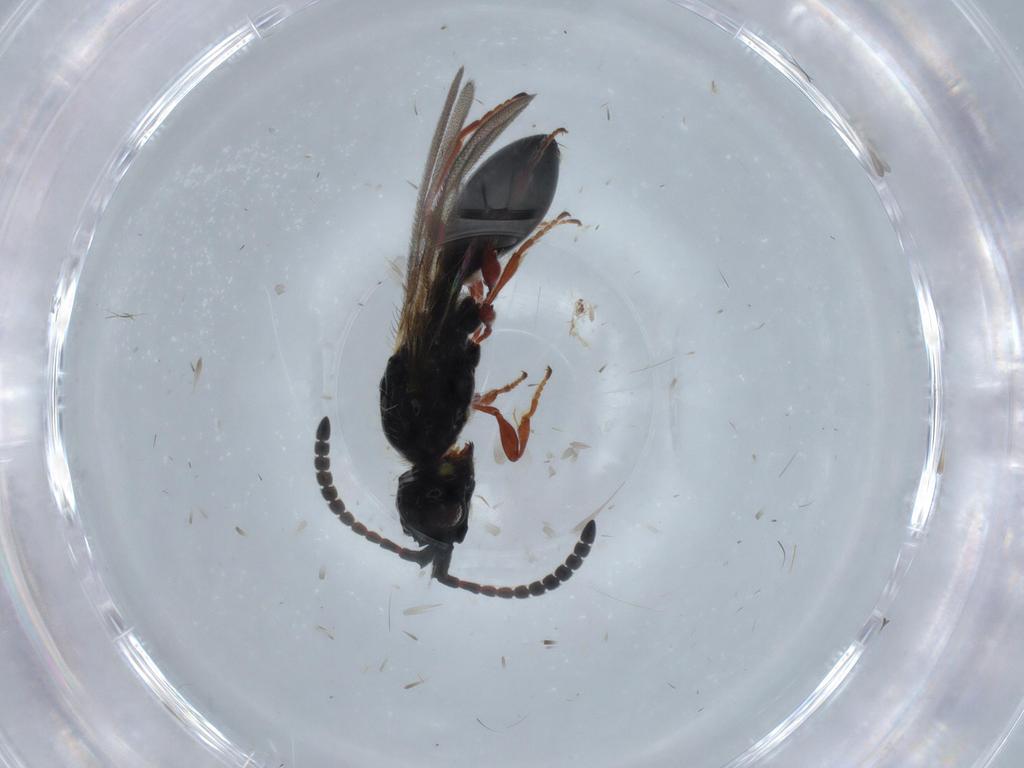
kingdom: Animalia
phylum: Arthropoda
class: Insecta
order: Hymenoptera
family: Diapriidae
